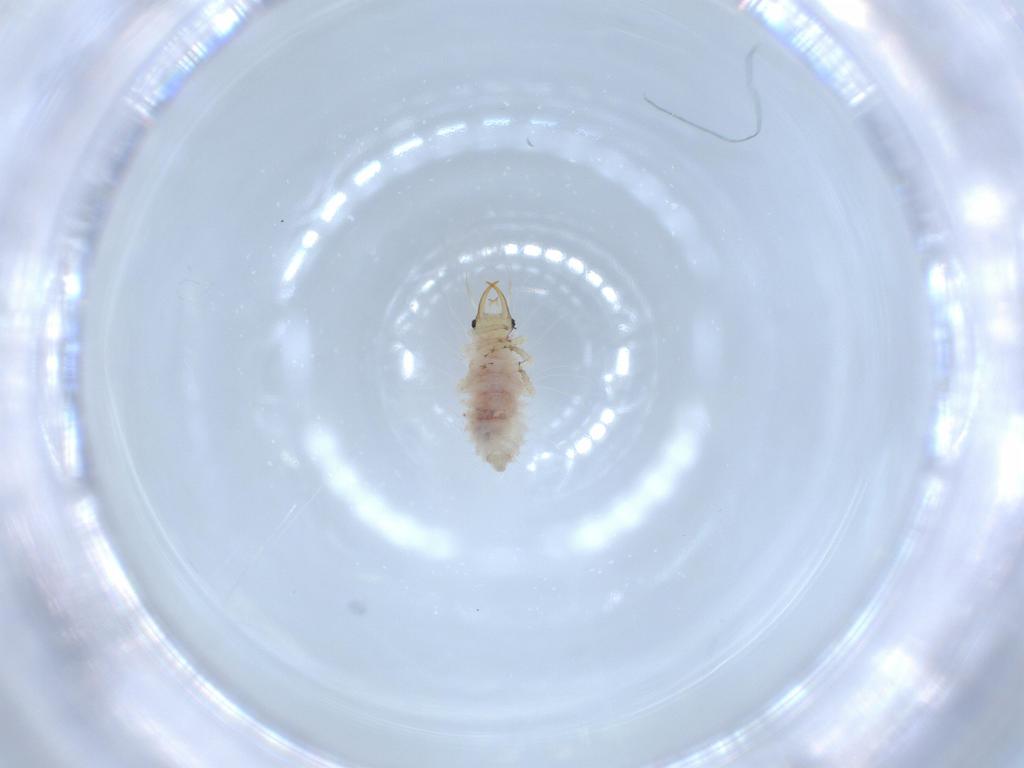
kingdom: Animalia
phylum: Arthropoda
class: Insecta
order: Neuroptera
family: Chrysopidae
